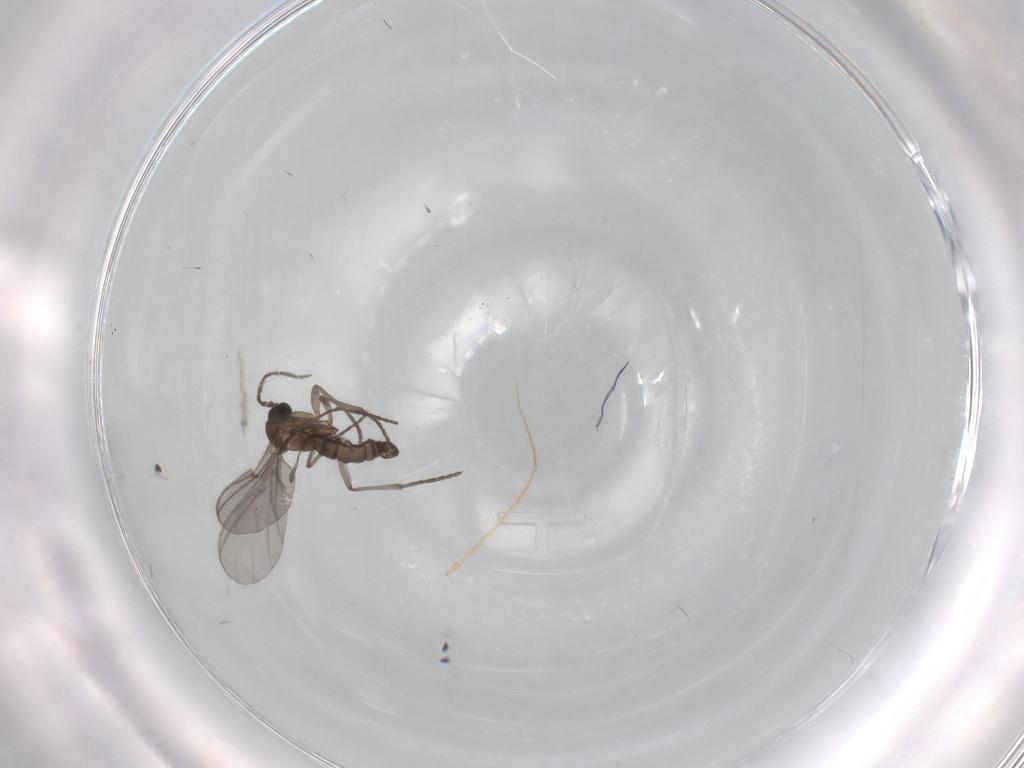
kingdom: Animalia
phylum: Arthropoda
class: Insecta
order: Diptera
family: Sciaridae
